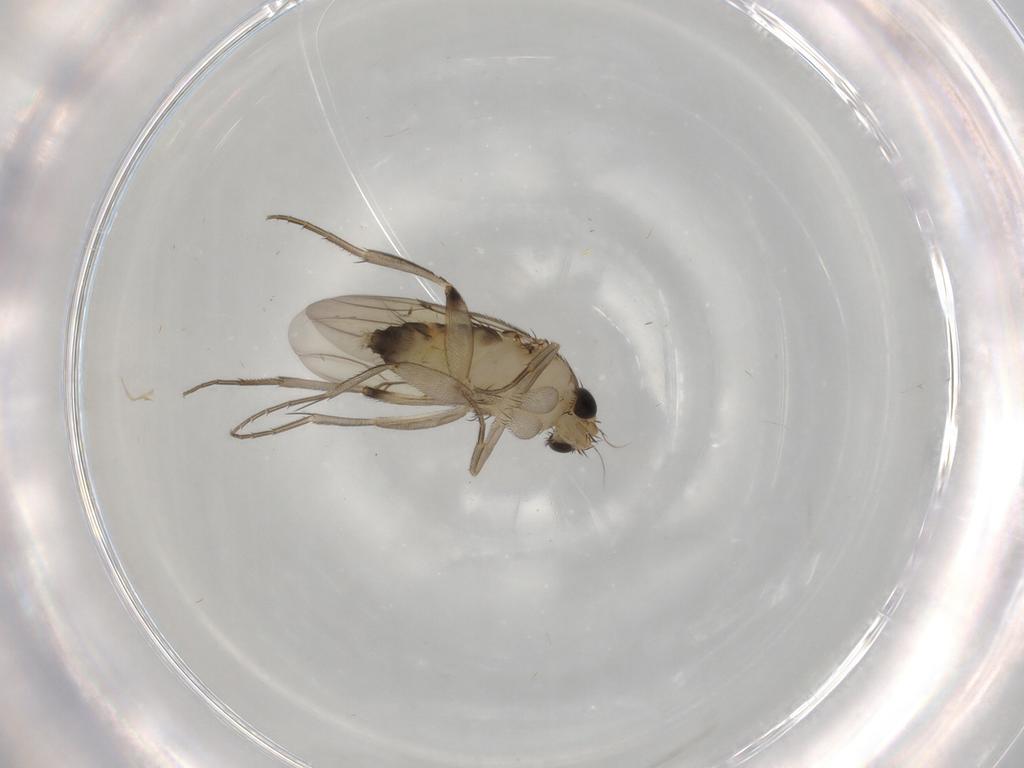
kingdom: Animalia
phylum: Arthropoda
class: Insecta
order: Diptera
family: Phoridae
